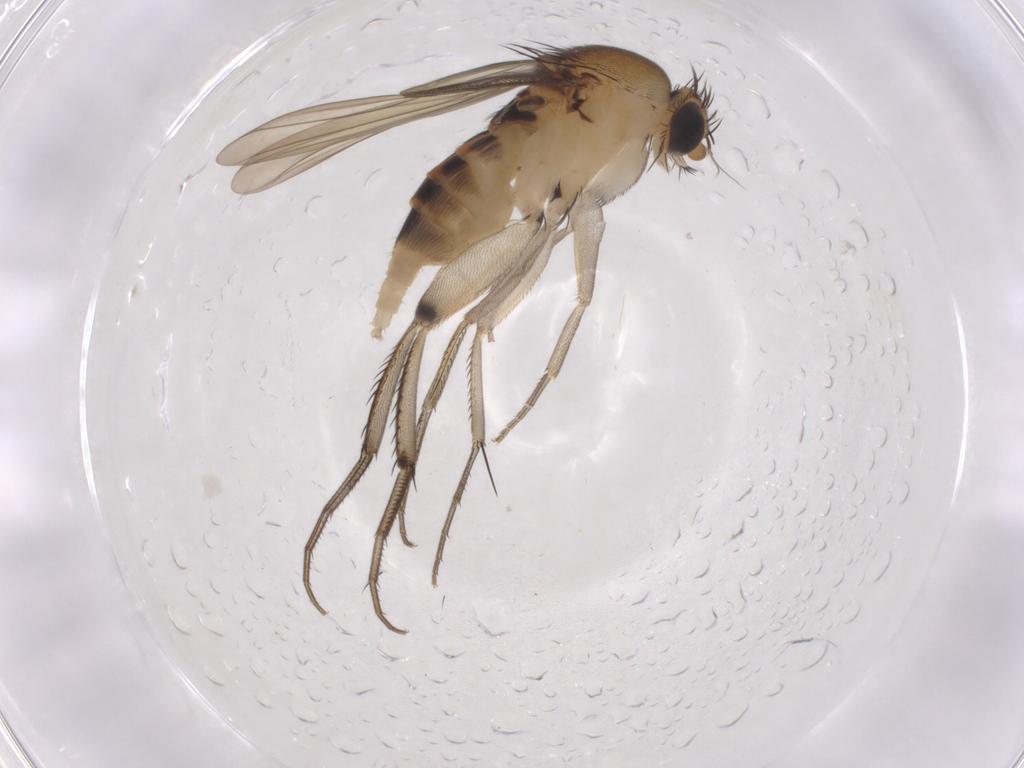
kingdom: Animalia
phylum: Arthropoda
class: Insecta
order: Diptera
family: Phoridae
